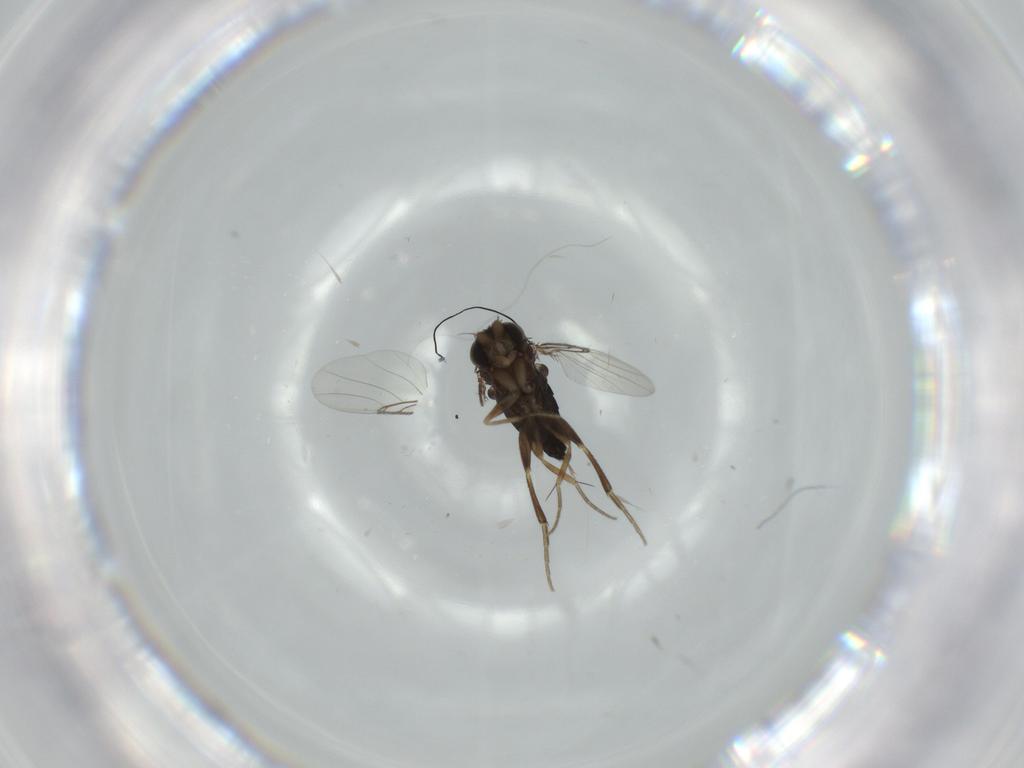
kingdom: Animalia
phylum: Arthropoda
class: Insecta
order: Diptera
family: Phoridae
